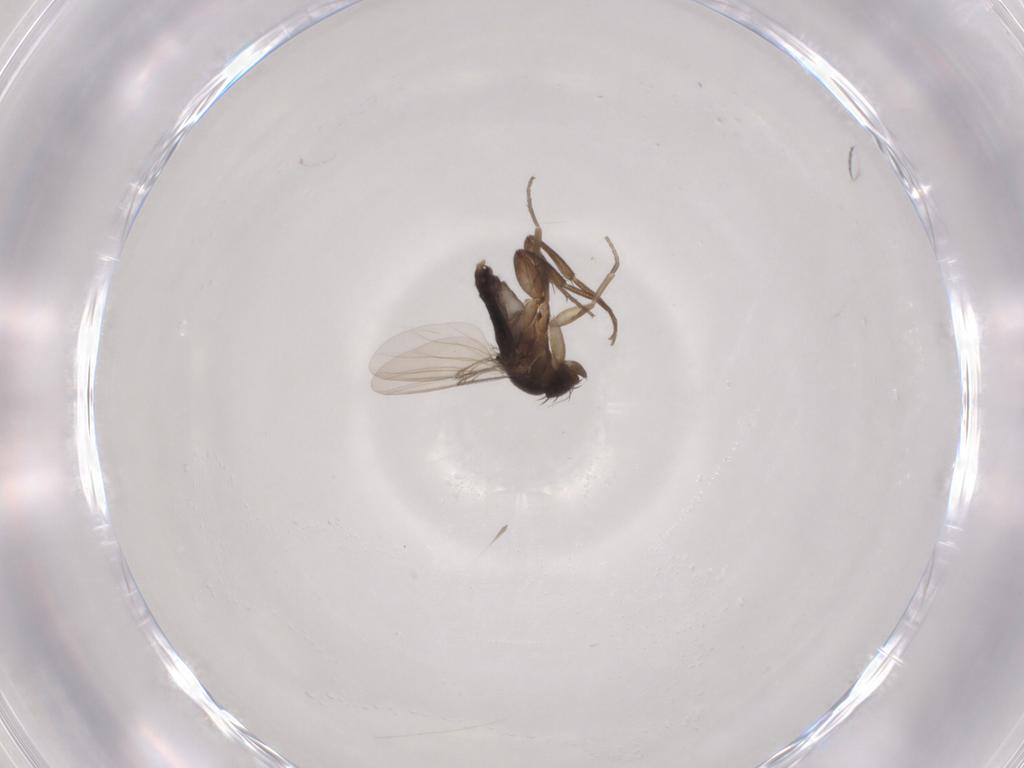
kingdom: Animalia
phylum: Arthropoda
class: Insecta
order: Diptera
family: Phoridae
